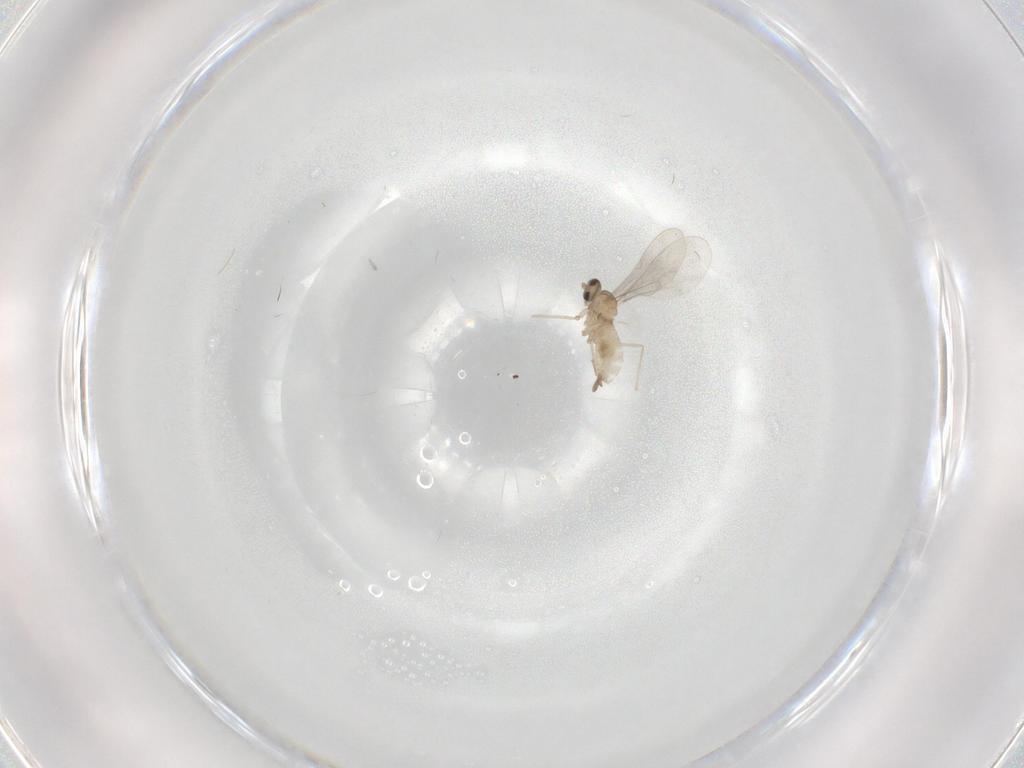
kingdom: Animalia
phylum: Arthropoda
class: Insecta
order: Diptera
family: Cecidomyiidae
